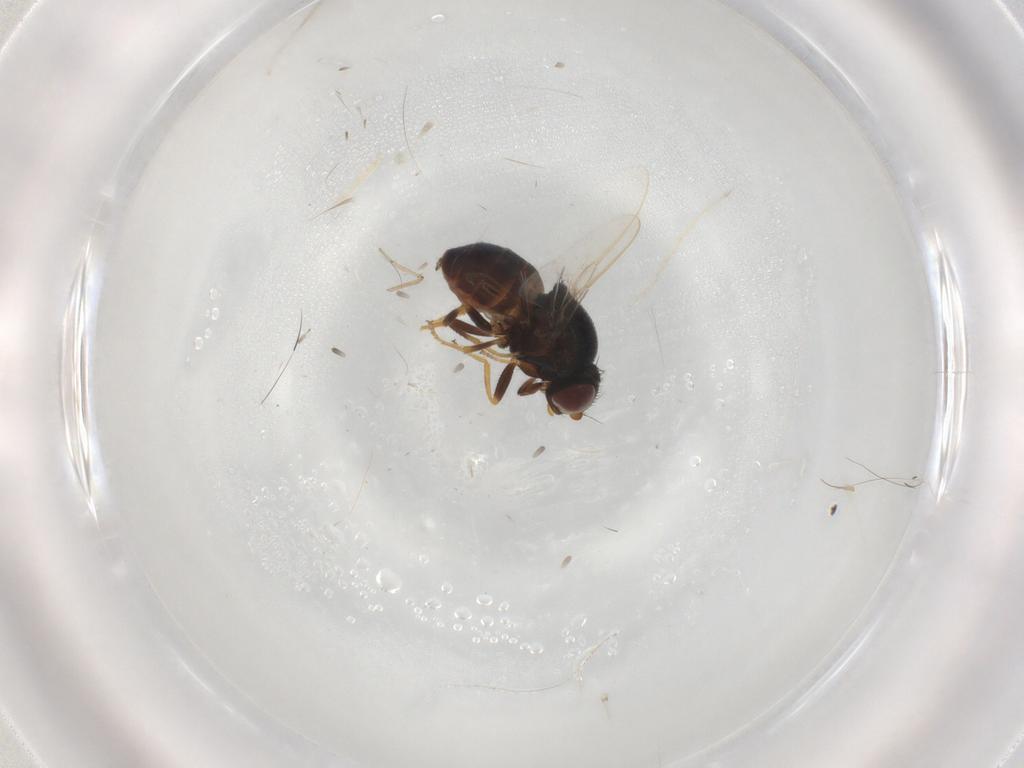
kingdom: Animalia
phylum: Arthropoda
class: Insecta
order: Diptera
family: Chloropidae
